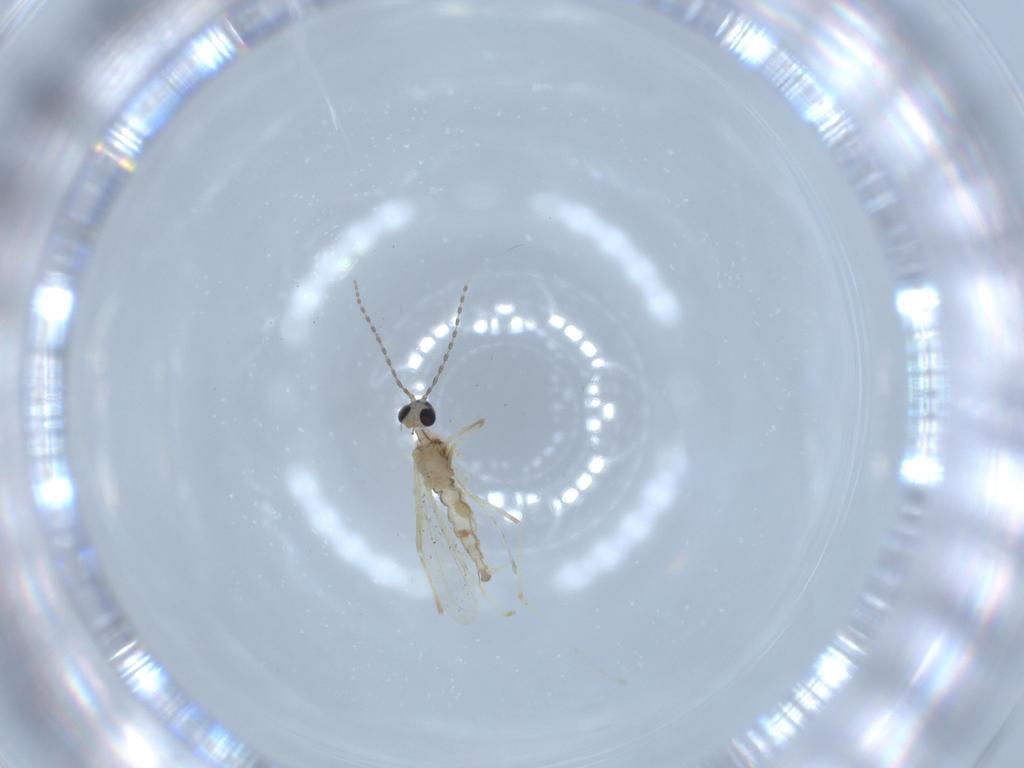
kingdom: Animalia
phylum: Arthropoda
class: Insecta
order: Diptera
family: Cecidomyiidae
